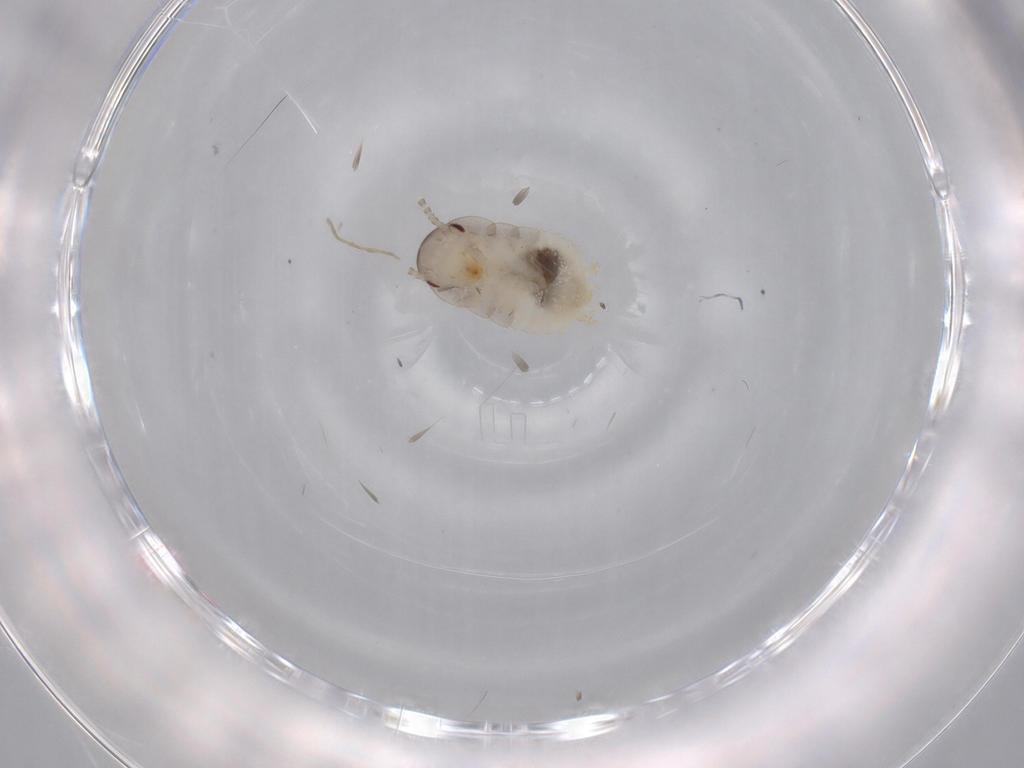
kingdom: Animalia
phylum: Arthropoda
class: Insecta
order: Blattodea
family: Ectobiidae
